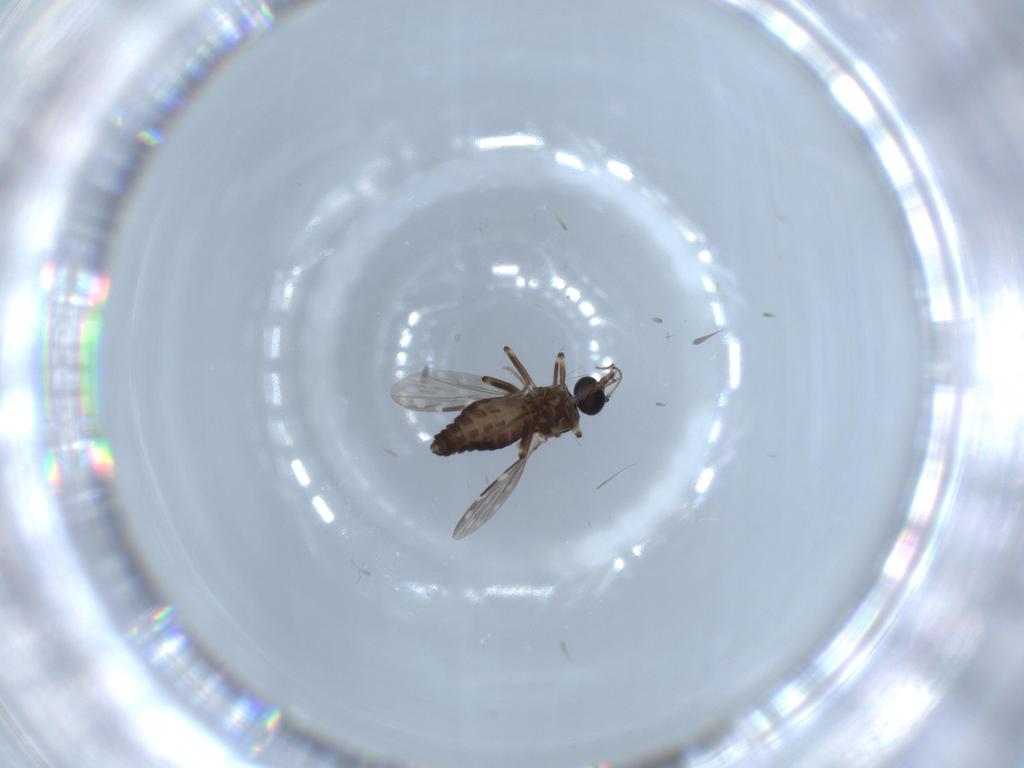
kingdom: Animalia
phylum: Arthropoda
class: Insecta
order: Diptera
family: Ceratopogonidae
